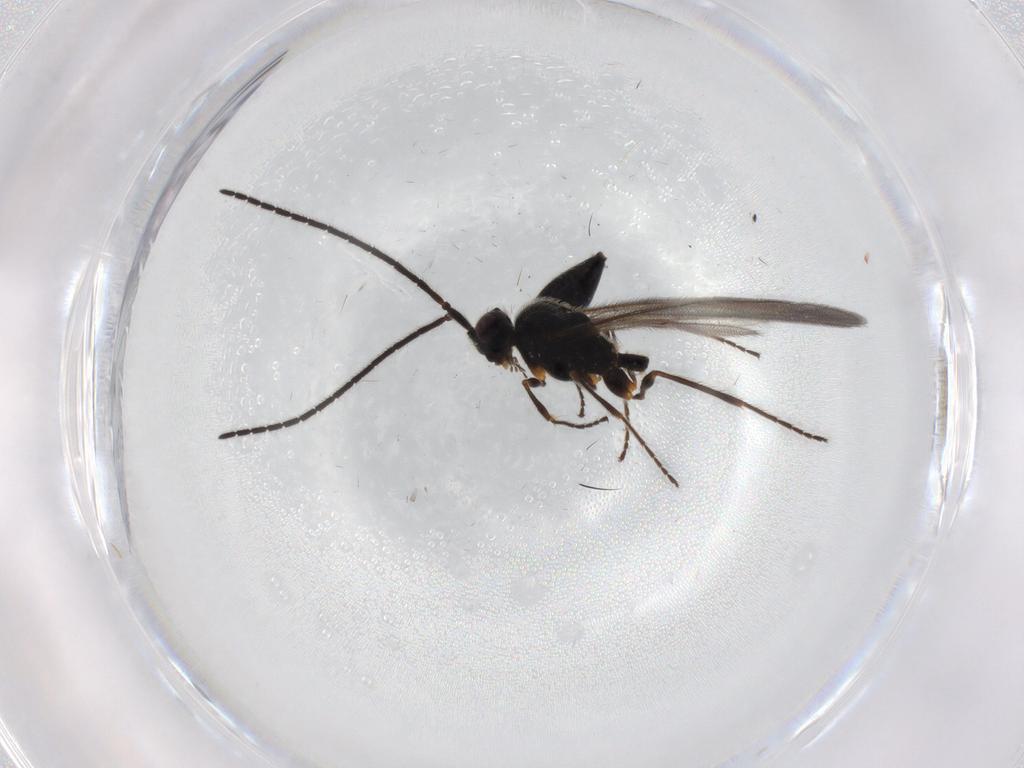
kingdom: Animalia
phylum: Arthropoda
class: Insecta
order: Hymenoptera
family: Diapriidae
